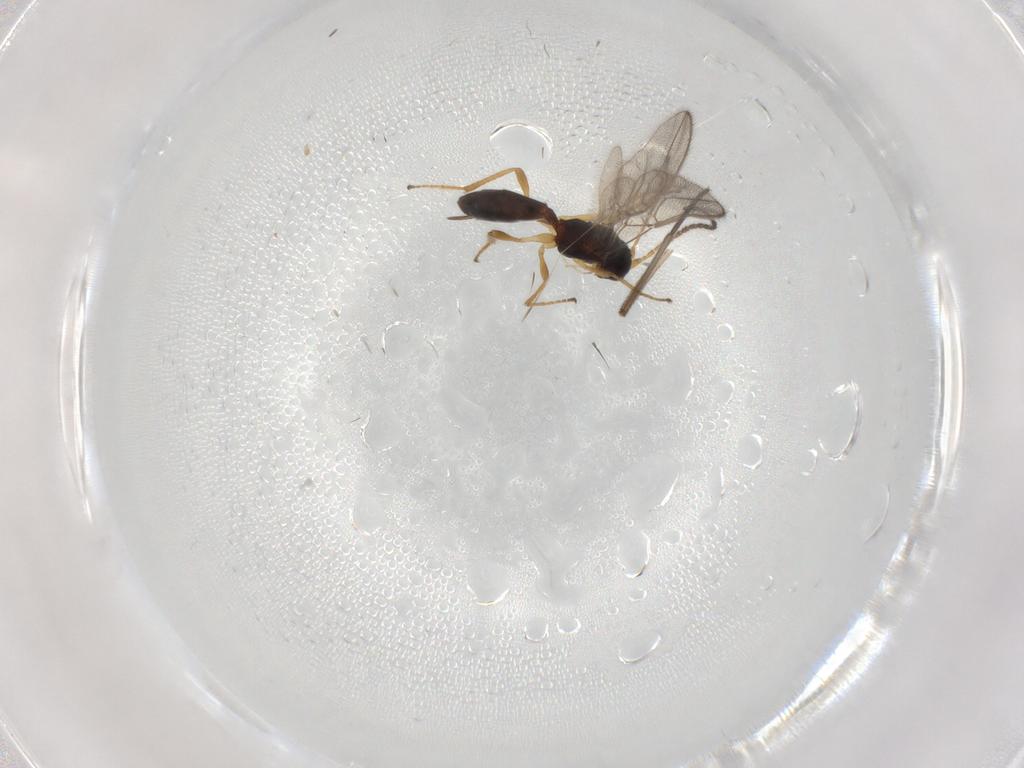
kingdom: Animalia
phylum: Arthropoda
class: Insecta
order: Hymenoptera
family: Braconidae
